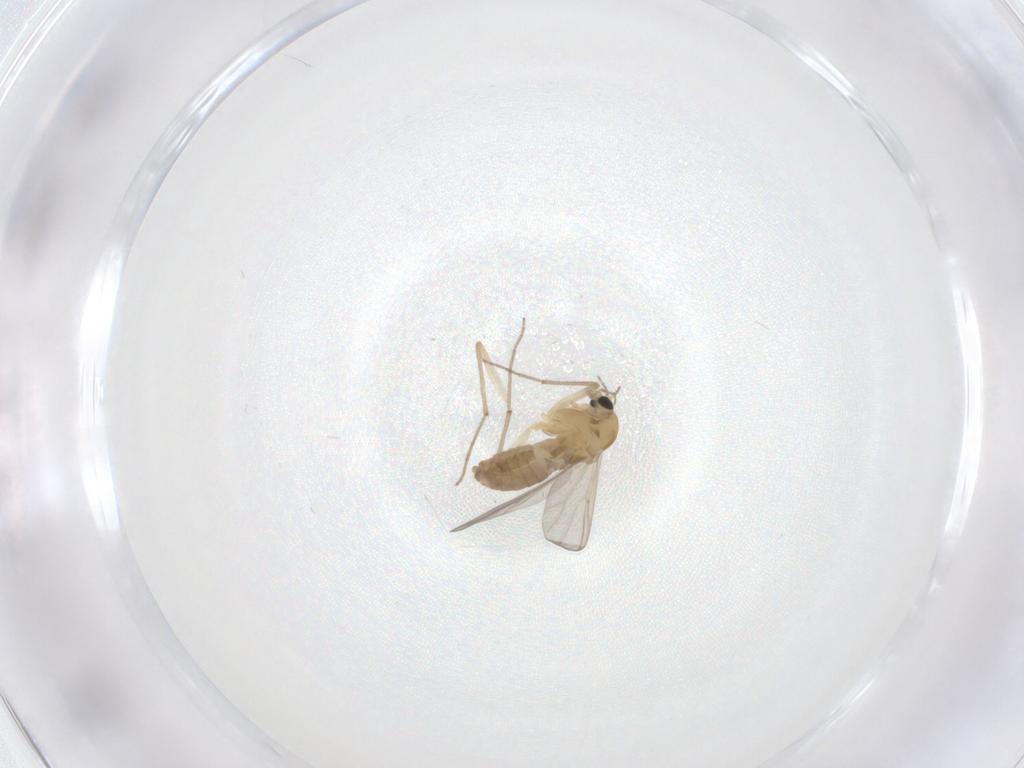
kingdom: Animalia
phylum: Arthropoda
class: Insecta
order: Diptera
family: Chironomidae
